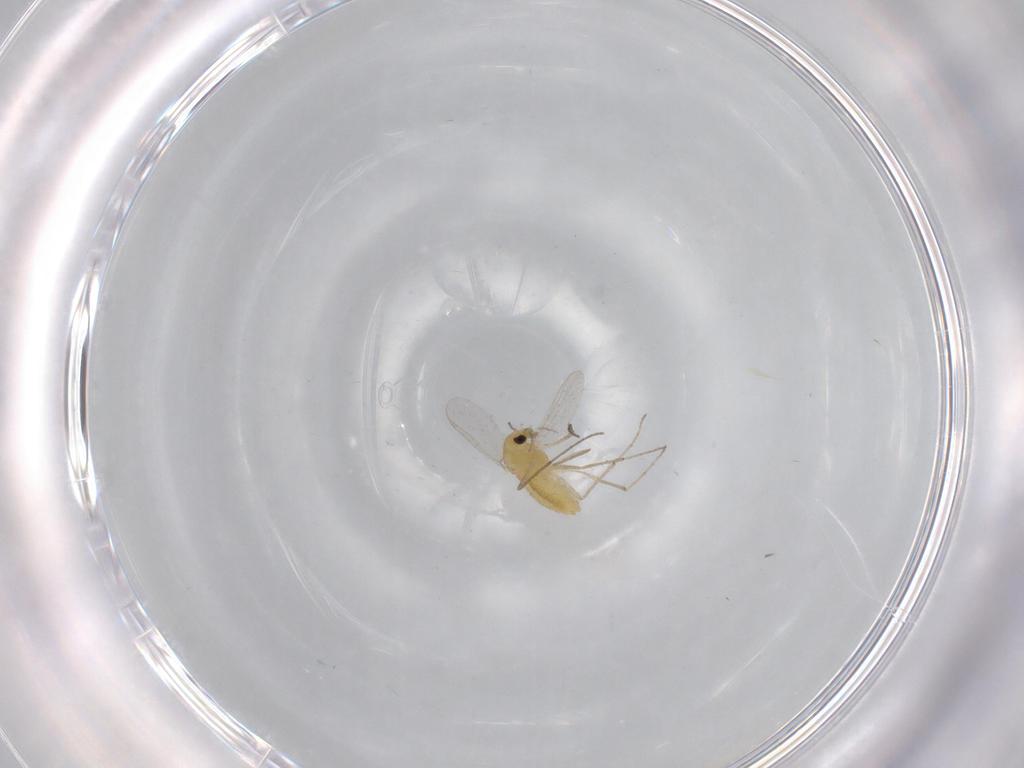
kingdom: Animalia
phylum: Arthropoda
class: Insecta
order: Diptera
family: Chironomidae
